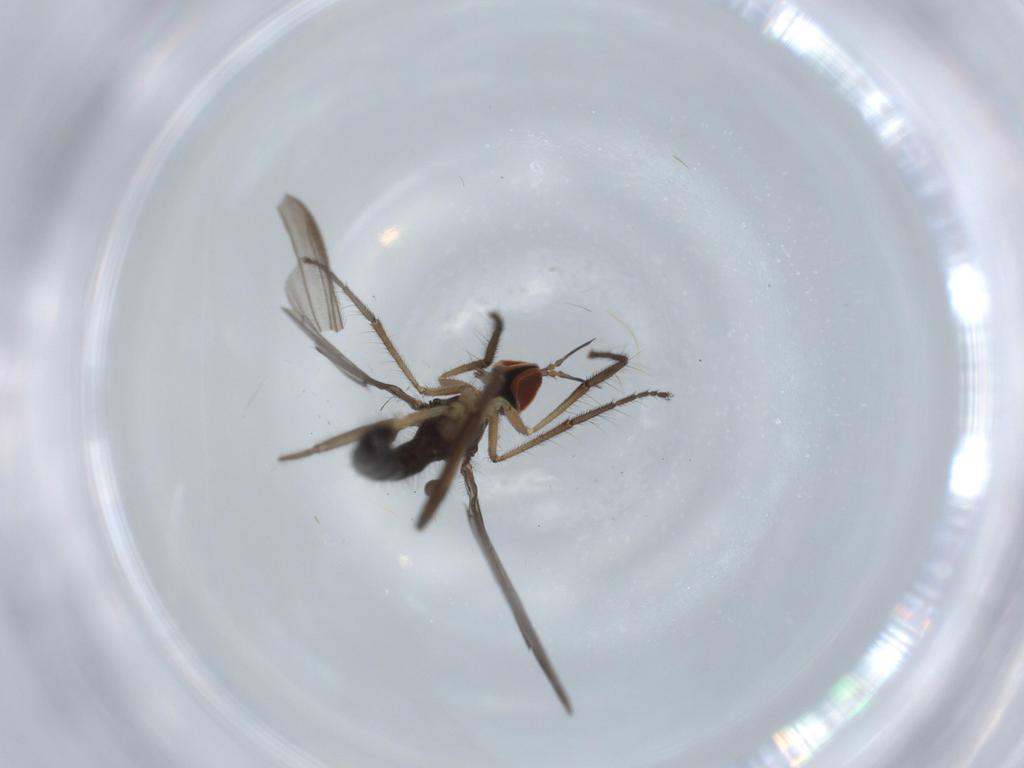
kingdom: Animalia
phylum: Arthropoda
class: Insecta
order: Diptera
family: Empididae
